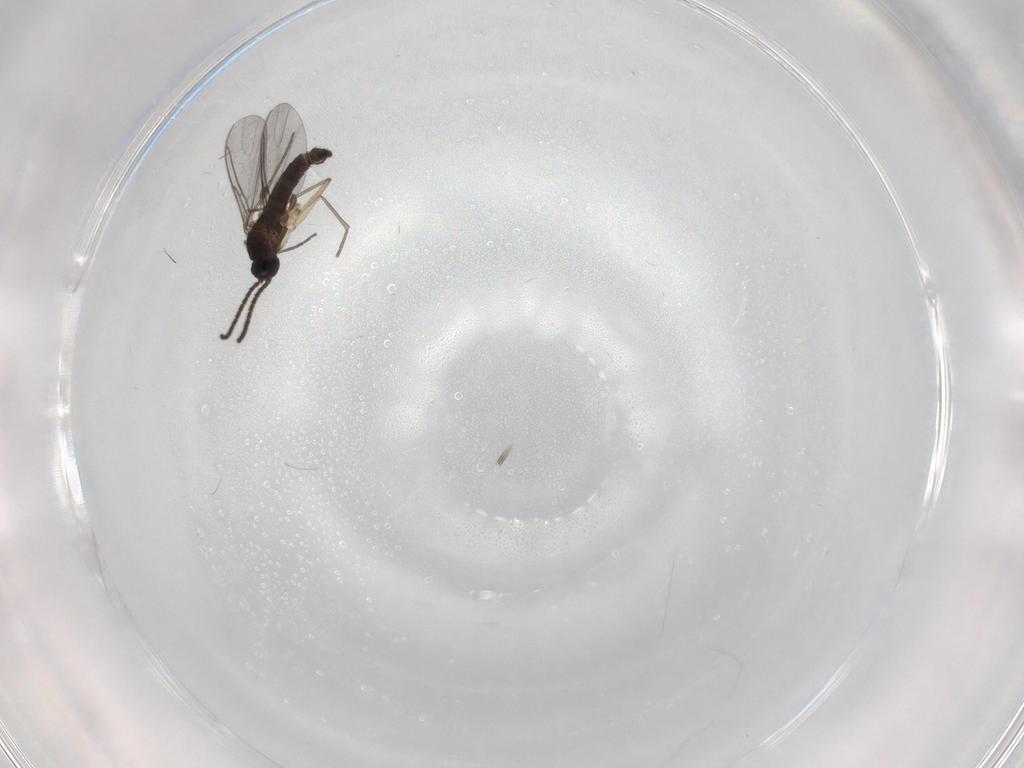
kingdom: Animalia
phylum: Arthropoda
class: Insecta
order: Diptera
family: Sciaridae
